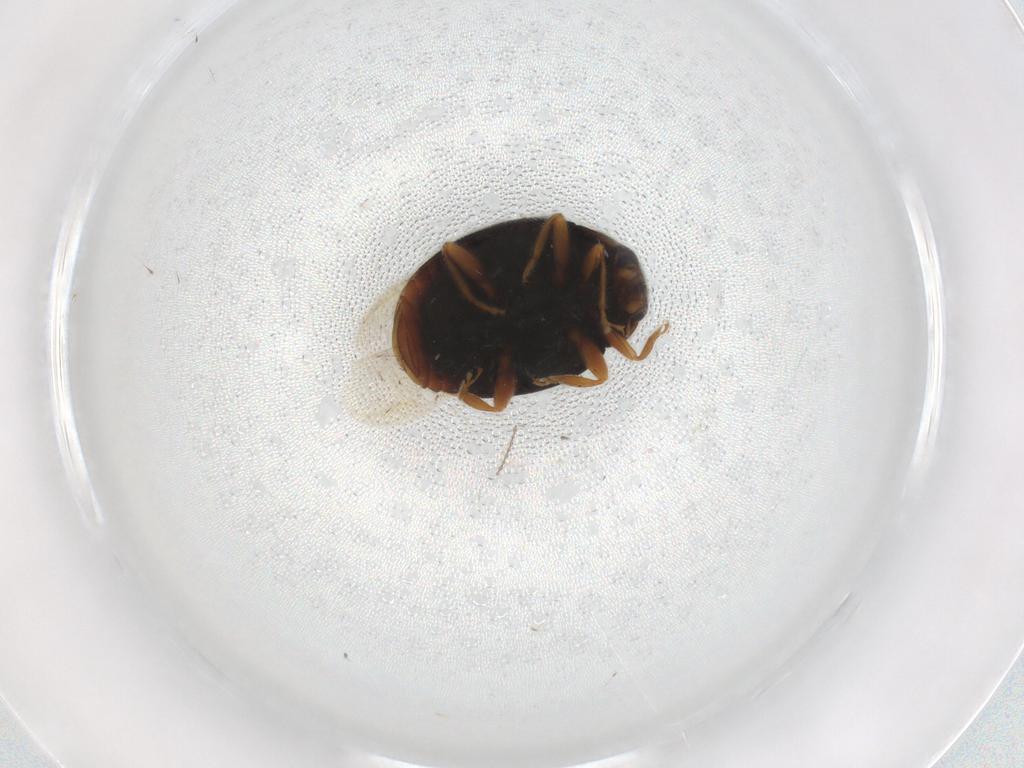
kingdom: Animalia
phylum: Arthropoda
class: Insecta
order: Coleoptera
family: Coccinellidae
